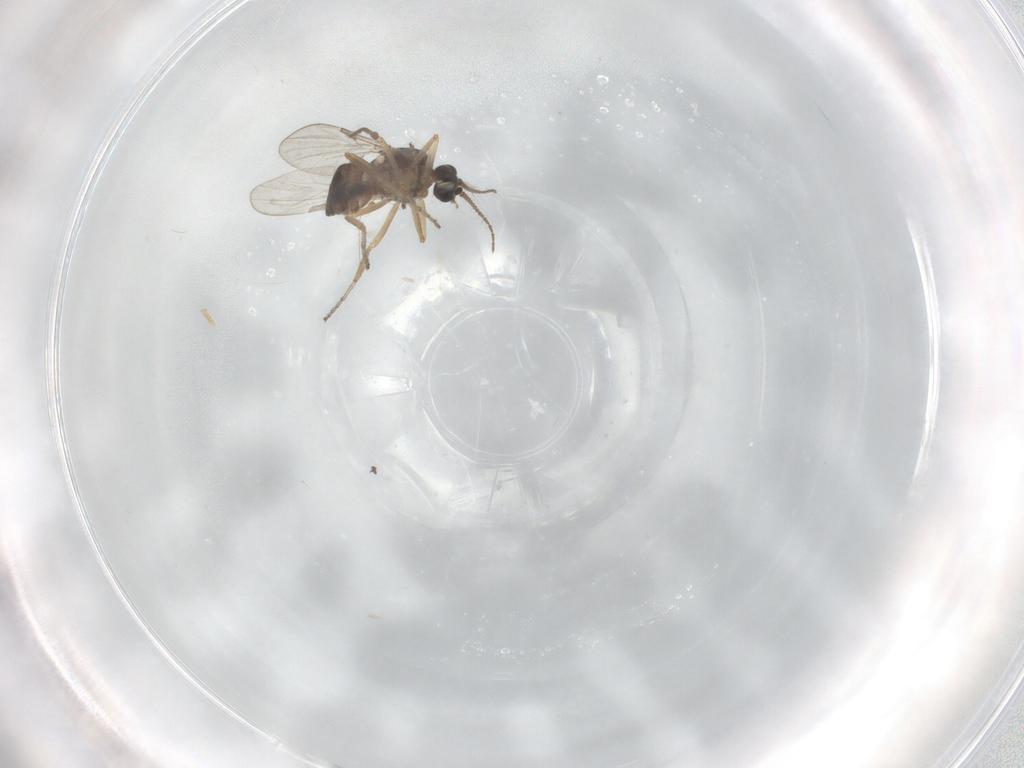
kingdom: Animalia
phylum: Arthropoda
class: Insecta
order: Diptera
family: Ceratopogonidae
